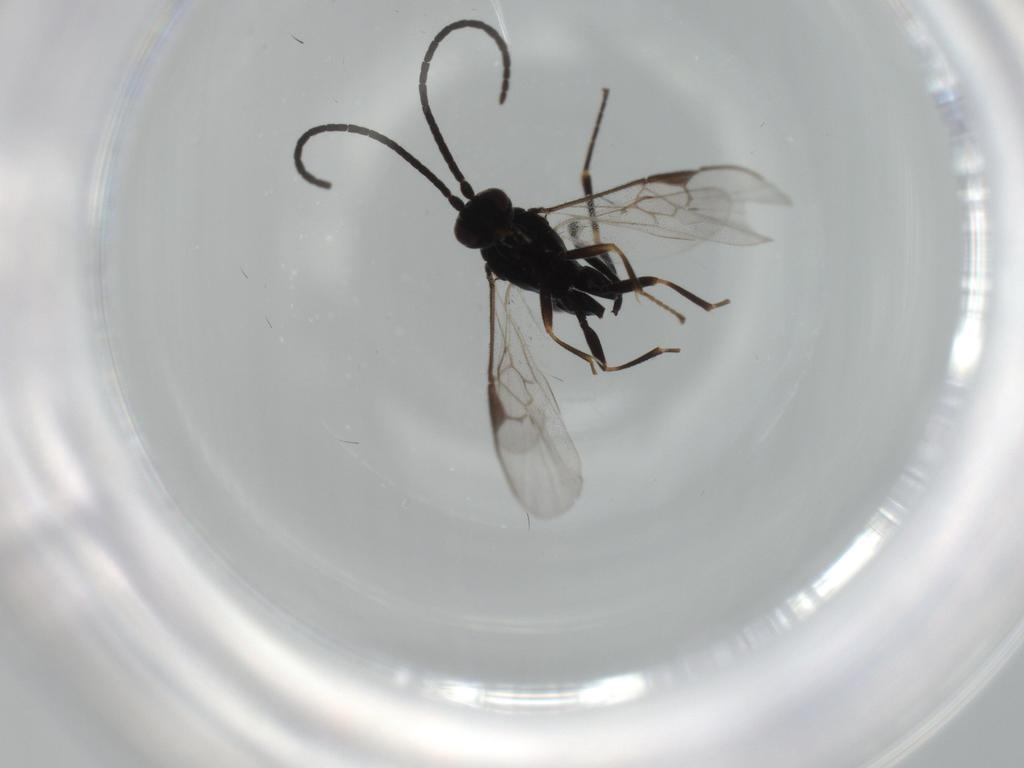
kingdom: Animalia
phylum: Arthropoda
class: Insecta
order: Hymenoptera
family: Braconidae
